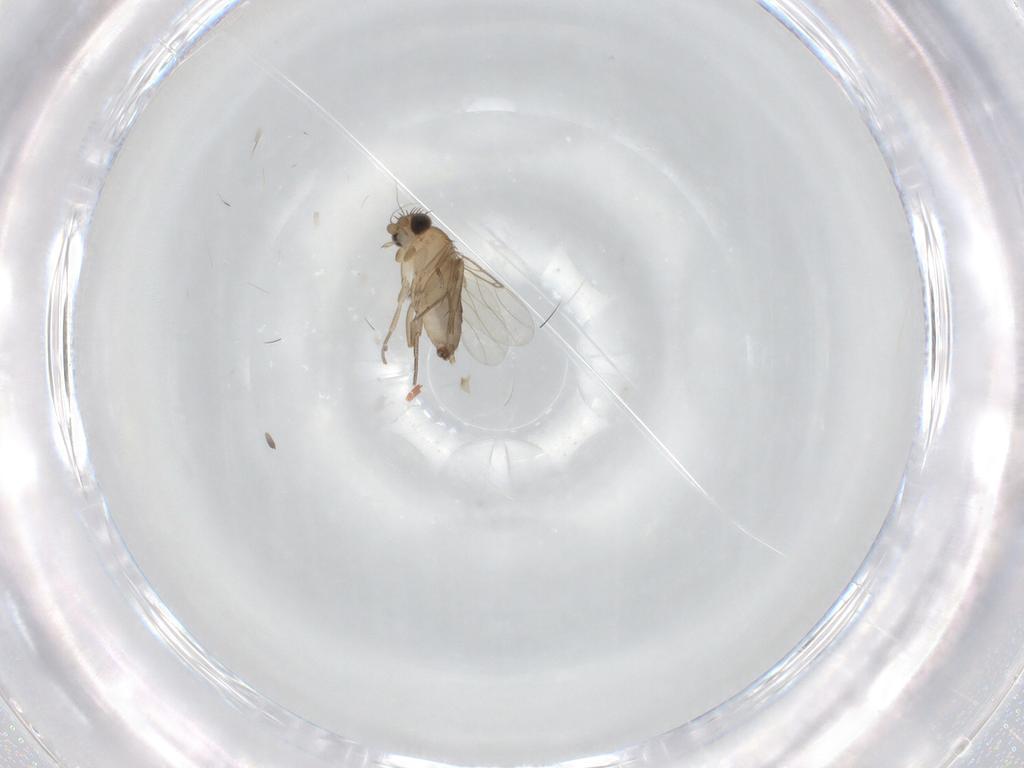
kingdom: Animalia
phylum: Arthropoda
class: Insecta
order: Diptera
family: Phoridae
